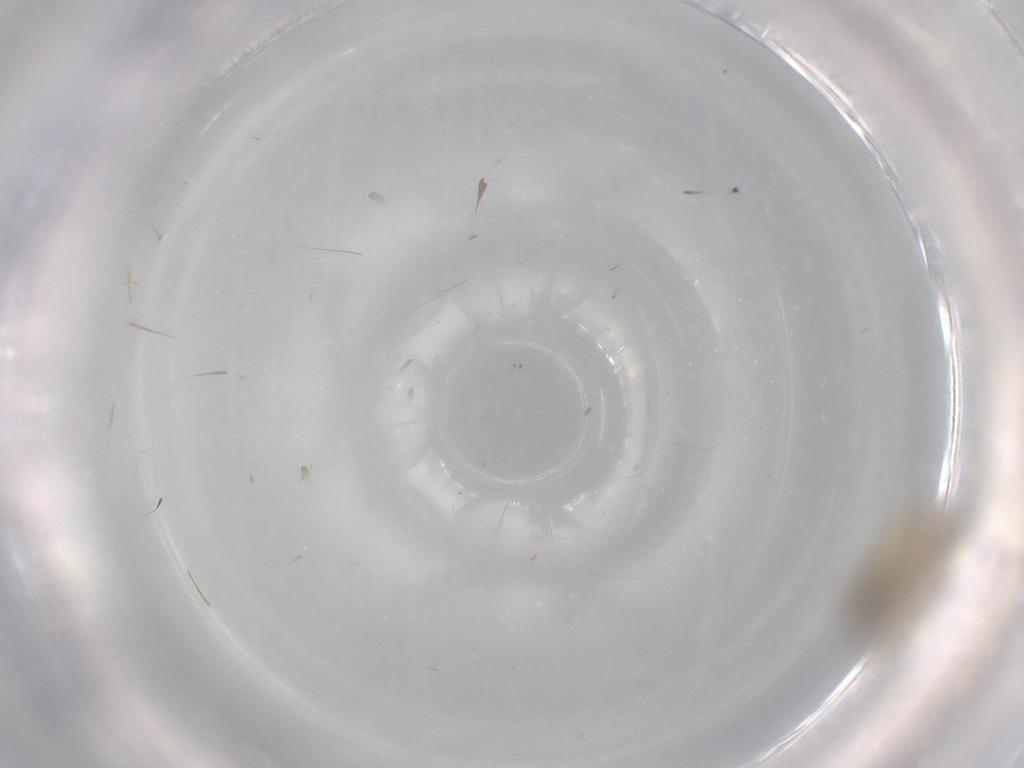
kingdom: Animalia
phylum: Arthropoda
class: Insecta
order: Diptera
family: Chironomidae
